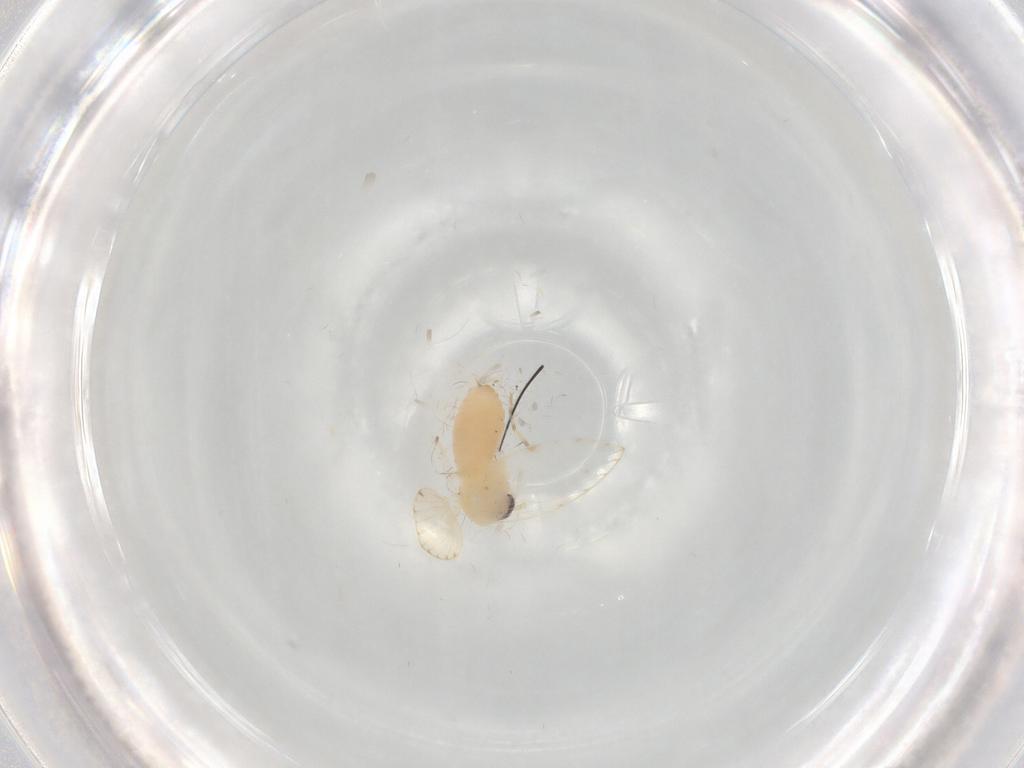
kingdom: Animalia
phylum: Arthropoda
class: Insecta
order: Diptera
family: Psychodidae
